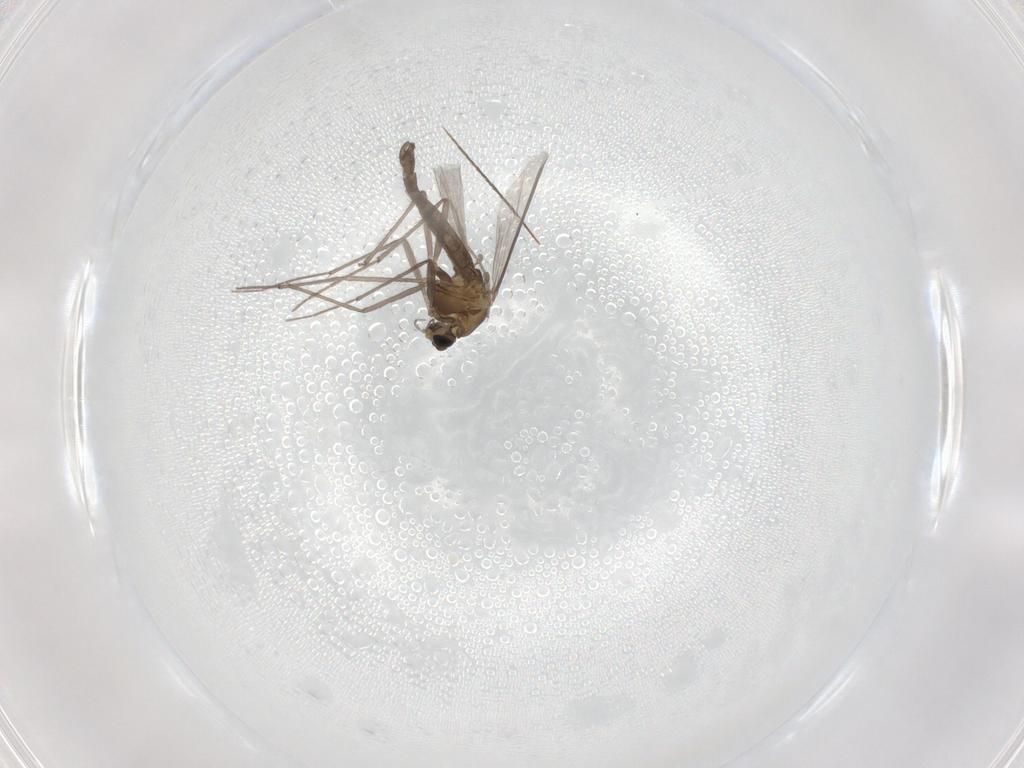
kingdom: Animalia
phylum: Arthropoda
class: Insecta
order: Diptera
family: Chironomidae
